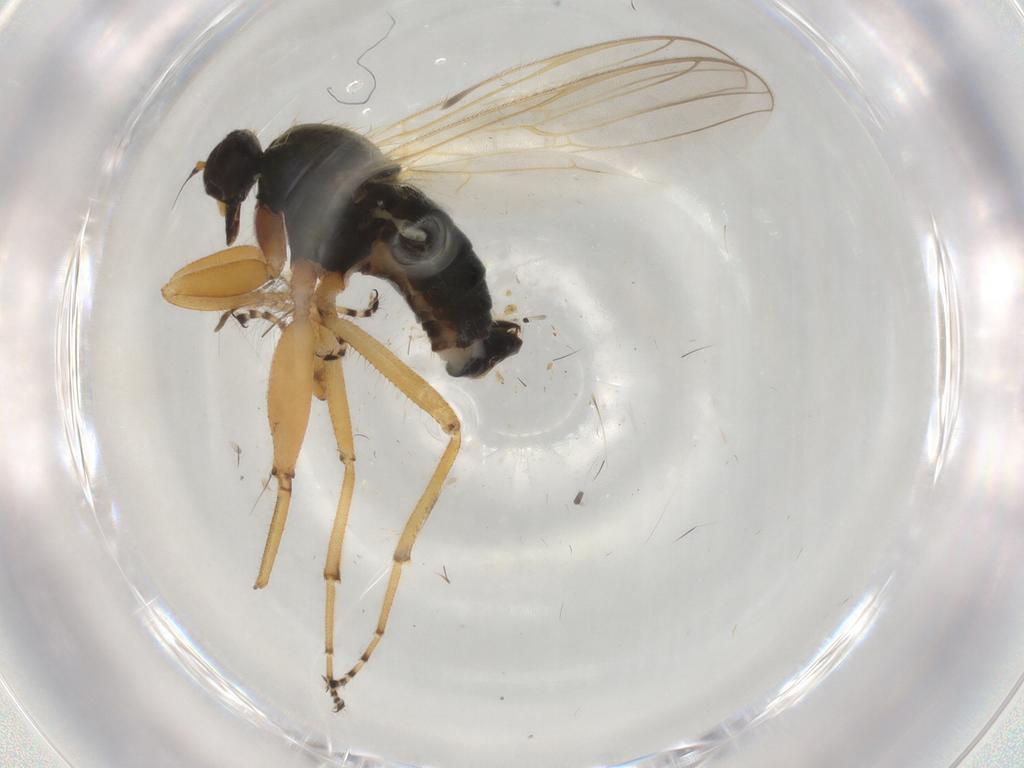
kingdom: Animalia
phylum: Arthropoda
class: Insecta
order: Diptera
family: Hybotidae
